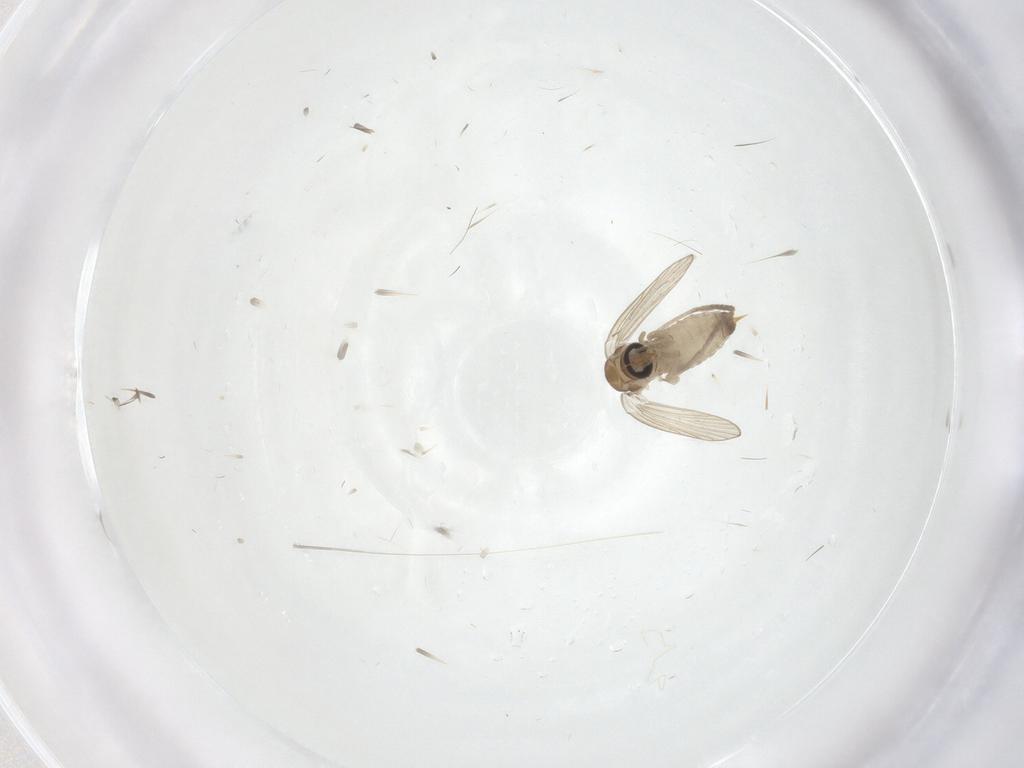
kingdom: Animalia
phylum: Arthropoda
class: Insecta
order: Diptera
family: Psychodidae
